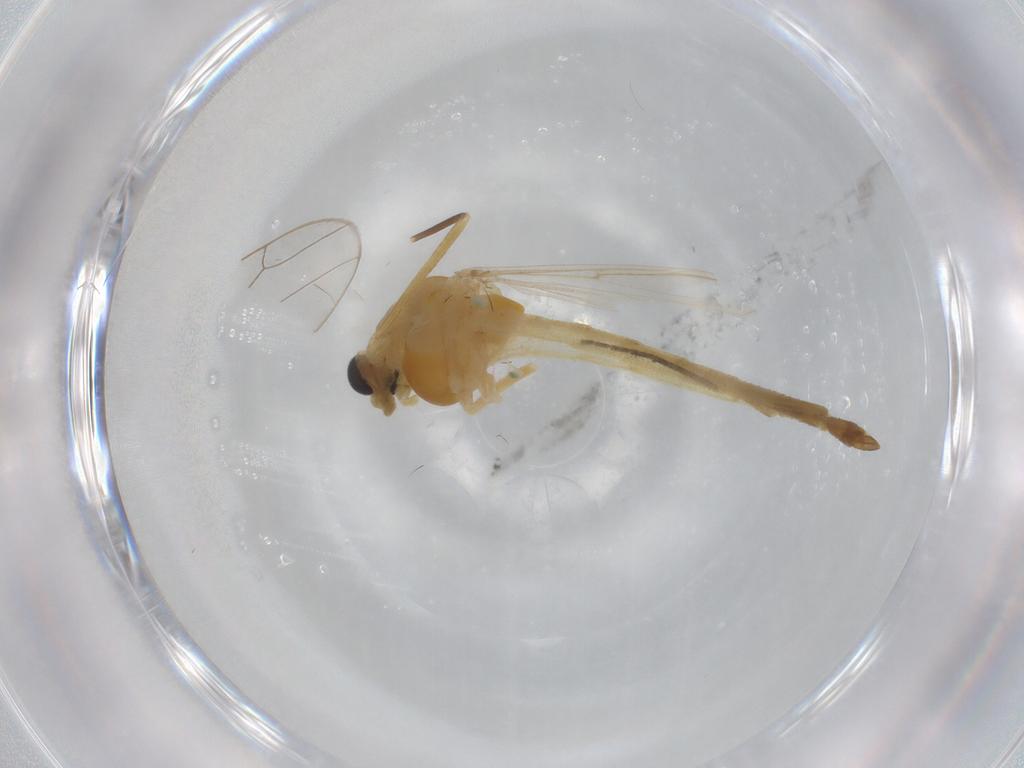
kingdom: Animalia
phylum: Arthropoda
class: Insecta
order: Diptera
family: Chironomidae
